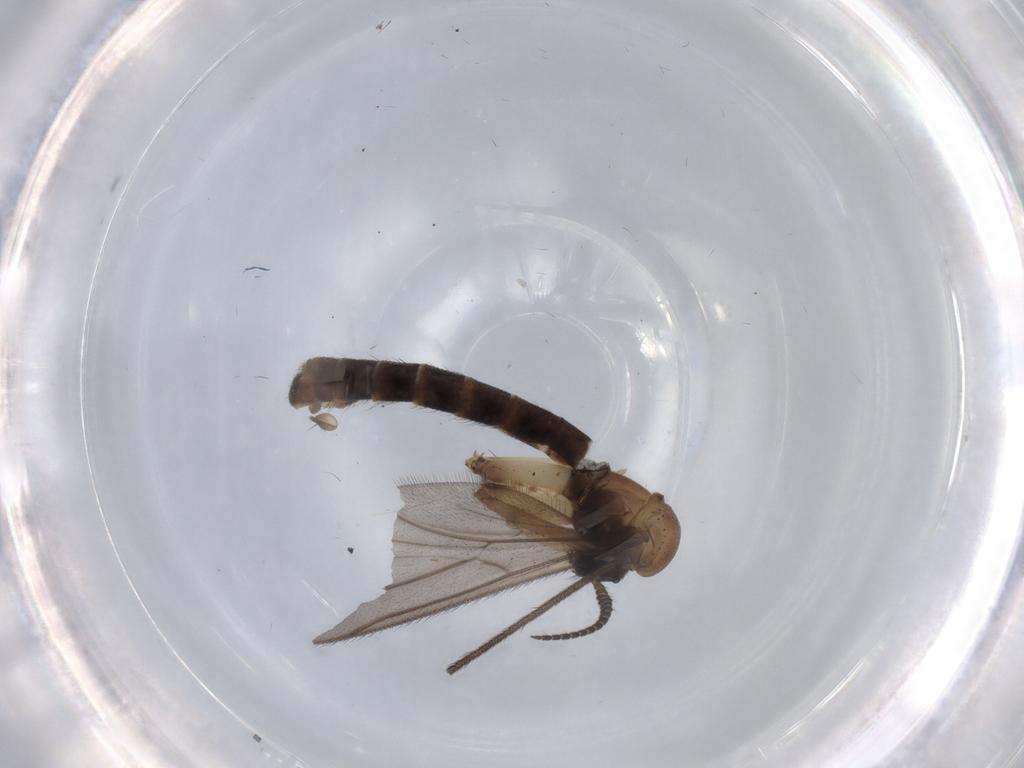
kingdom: Animalia
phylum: Arthropoda
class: Insecta
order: Diptera
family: Ditomyiidae
